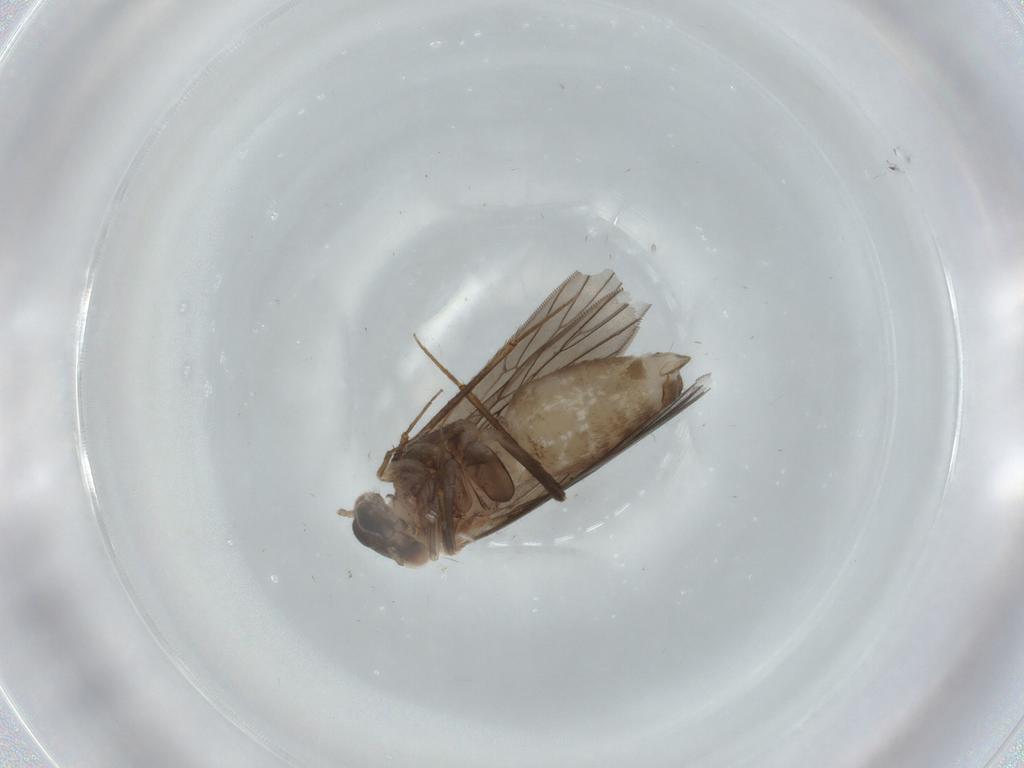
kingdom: Animalia
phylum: Arthropoda
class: Insecta
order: Psocodea
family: Lepidopsocidae
